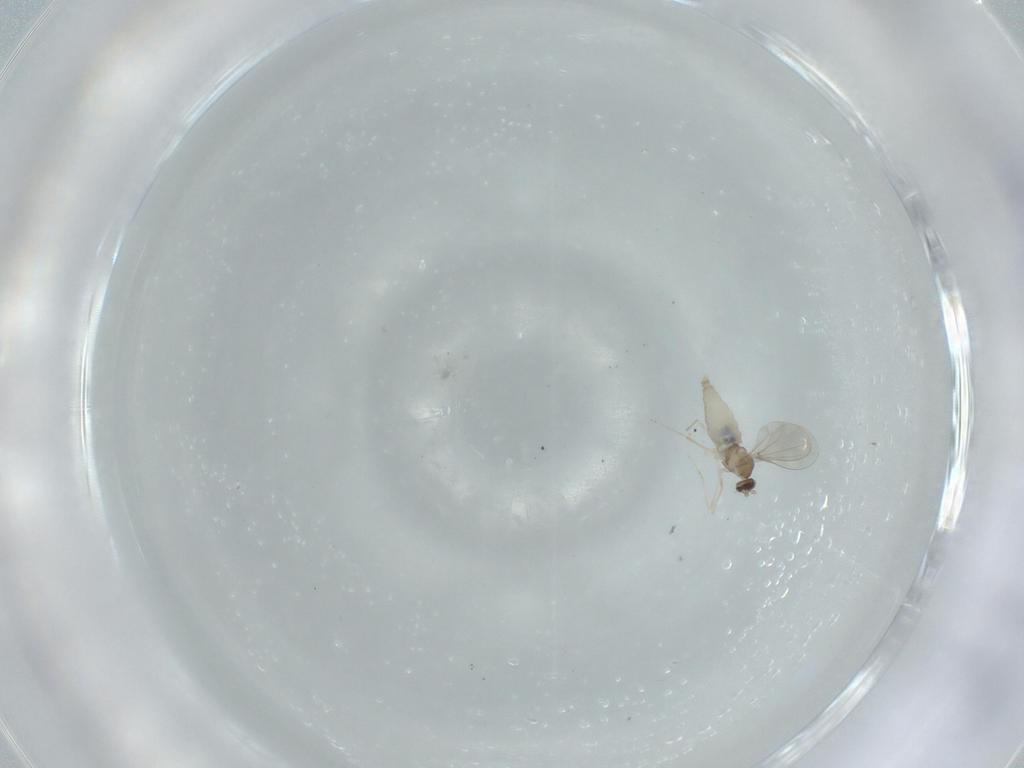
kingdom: Animalia
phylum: Arthropoda
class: Insecta
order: Diptera
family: Cecidomyiidae
